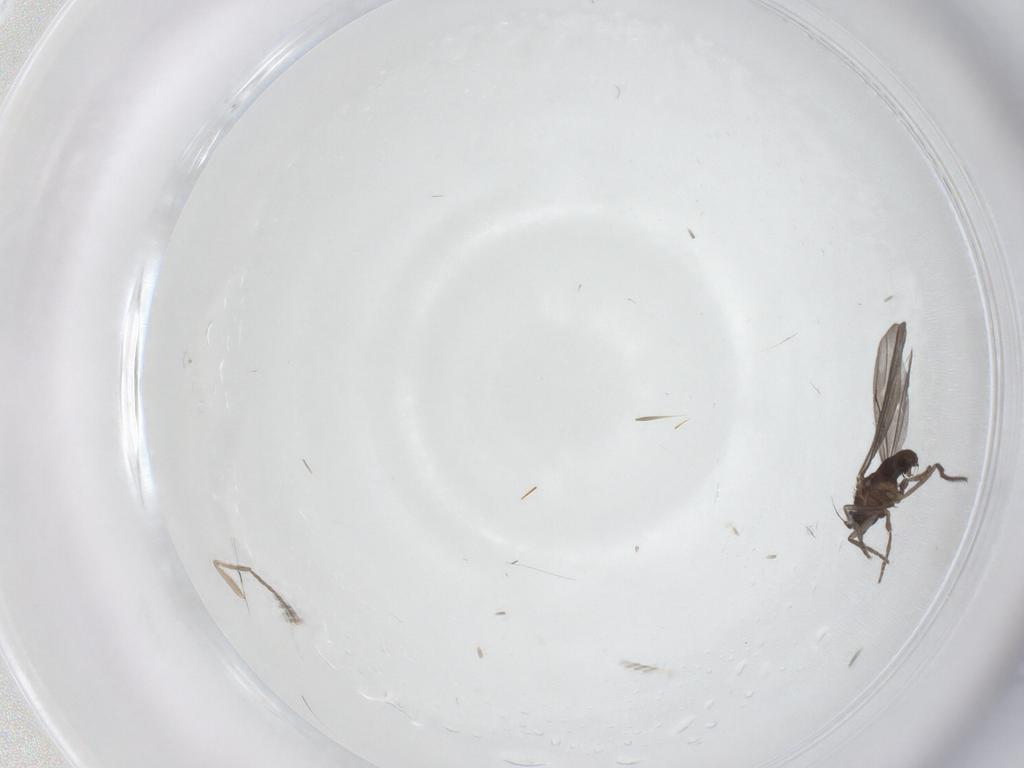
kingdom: Animalia
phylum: Arthropoda
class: Insecta
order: Diptera
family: Phoridae
